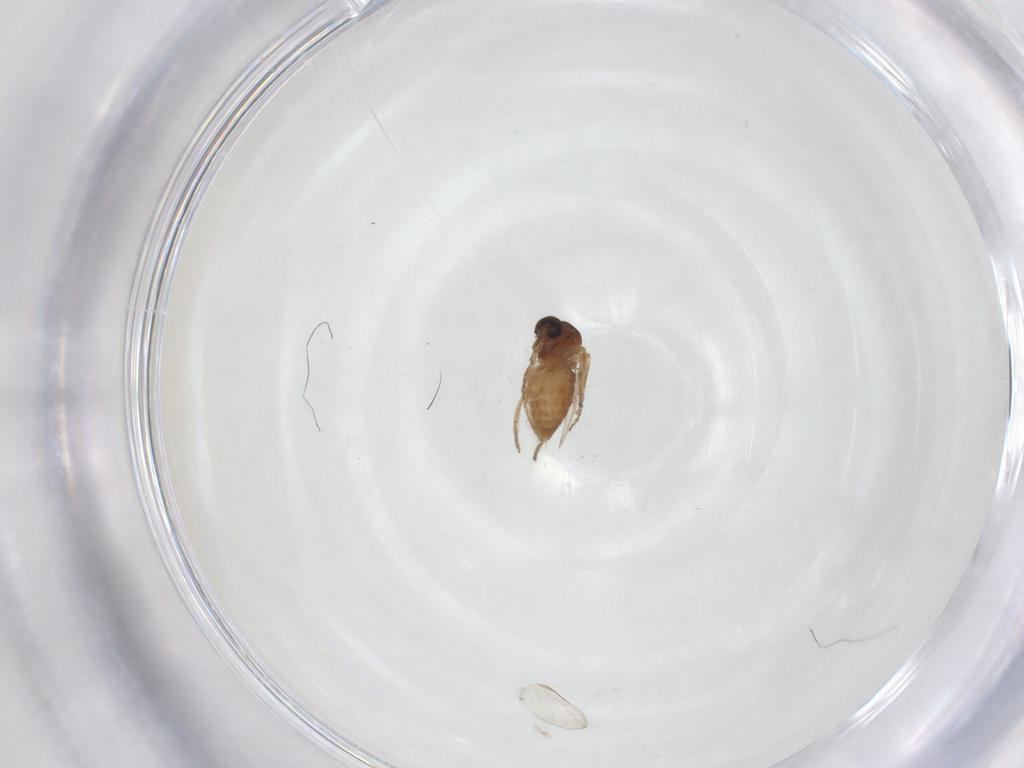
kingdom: Animalia
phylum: Arthropoda
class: Insecta
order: Diptera
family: Ceratopogonidae
